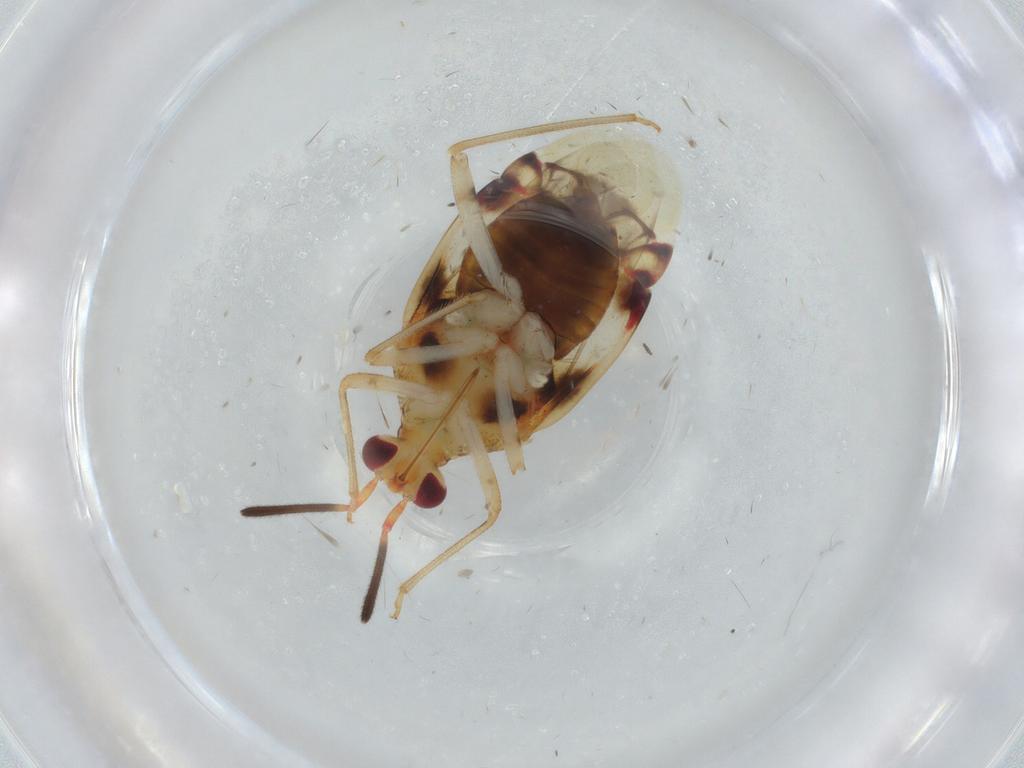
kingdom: Animalia
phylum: Arthropoda
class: Insecta
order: Hemiptera
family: Miridae
